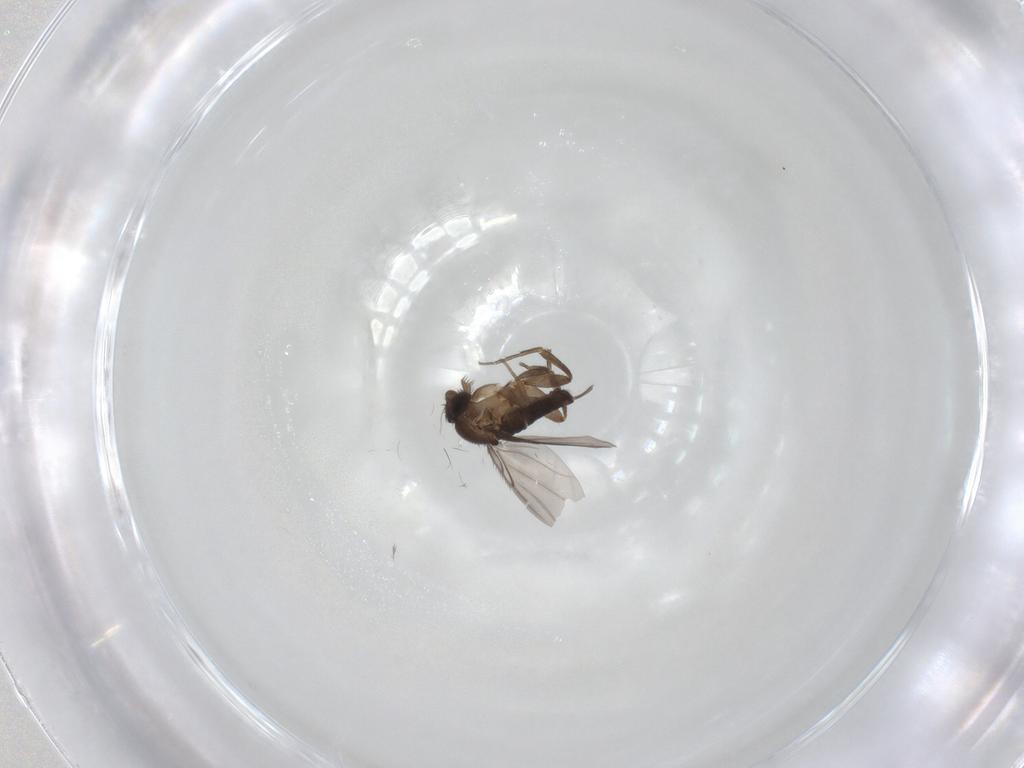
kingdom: Animalia
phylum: Arthropoda
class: Insecta
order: Diptera
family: Phoridae
